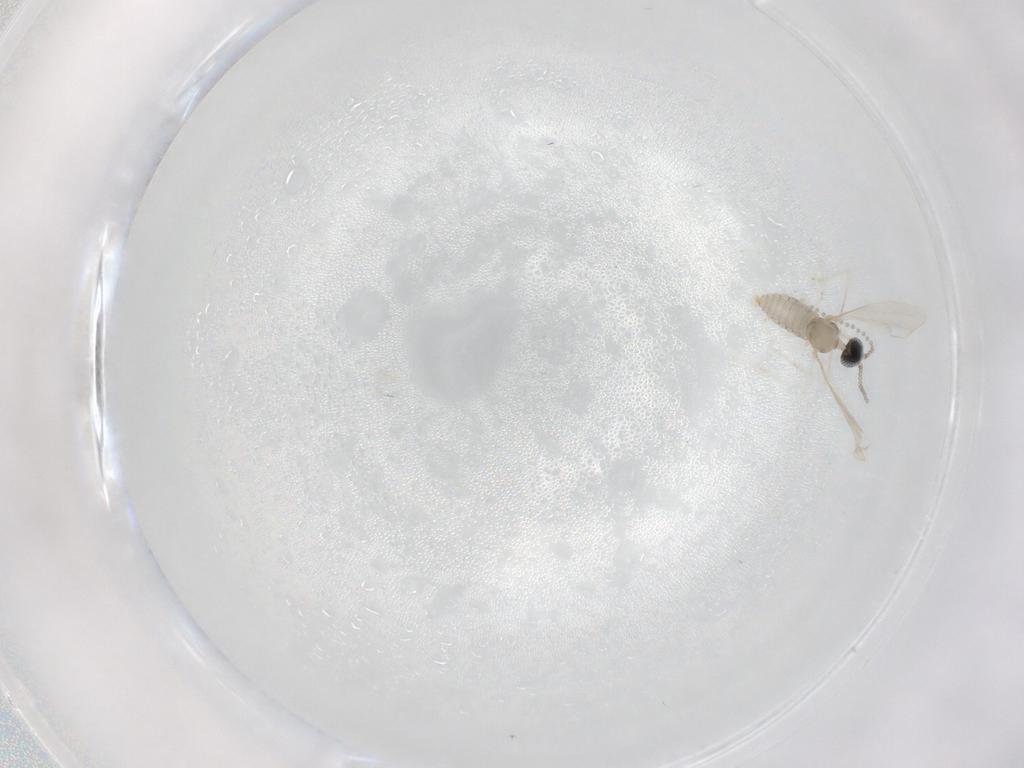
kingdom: Animalia
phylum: Arthropoda
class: Insecta
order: Diptera
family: Cecidomyiidae
